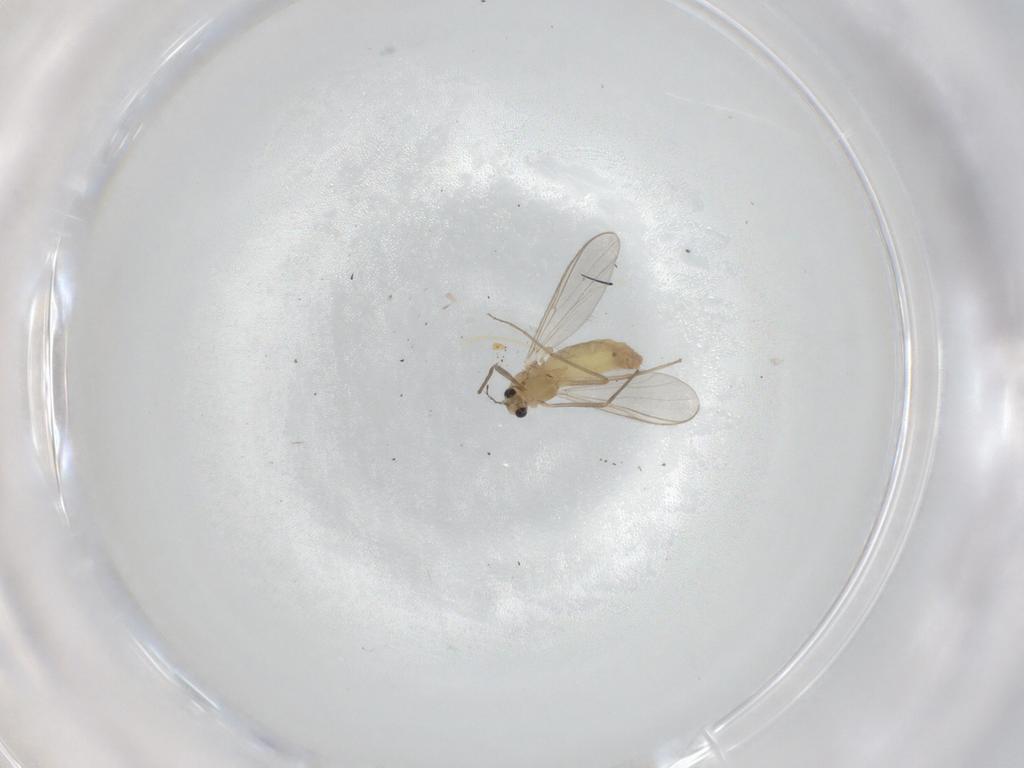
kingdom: Animalia
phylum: Arthropoda
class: Insecta
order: Diptera
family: Chironomidae
